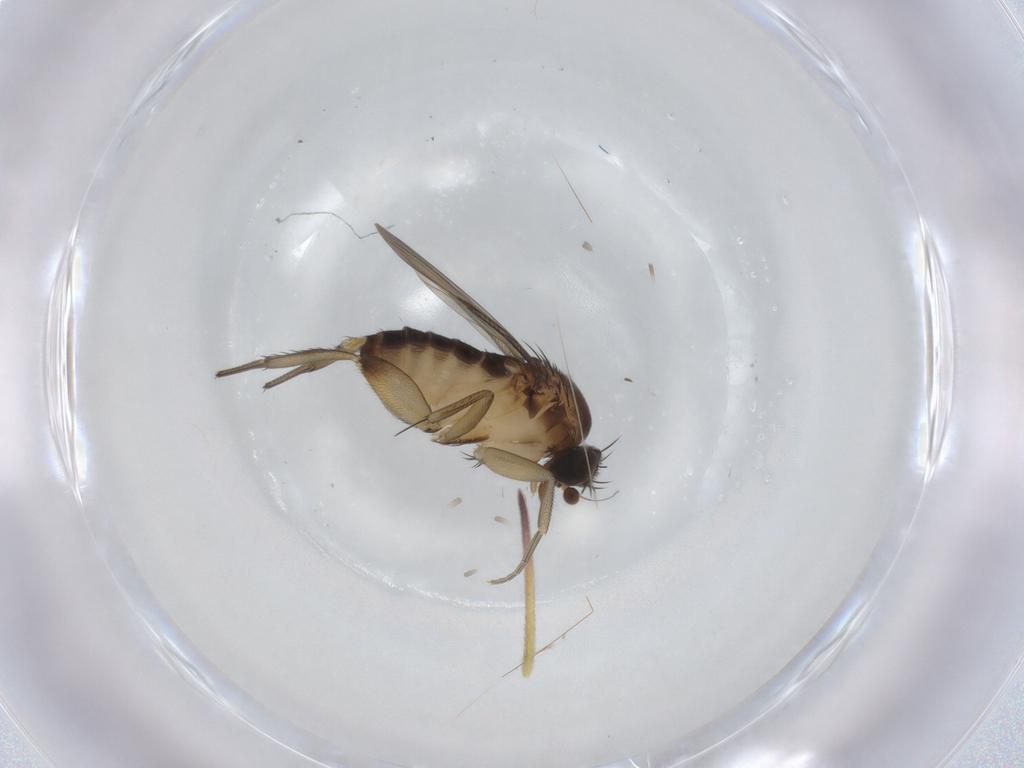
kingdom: Animalia
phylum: Arthropoda
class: Insecta
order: Diptera
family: Phoridae
